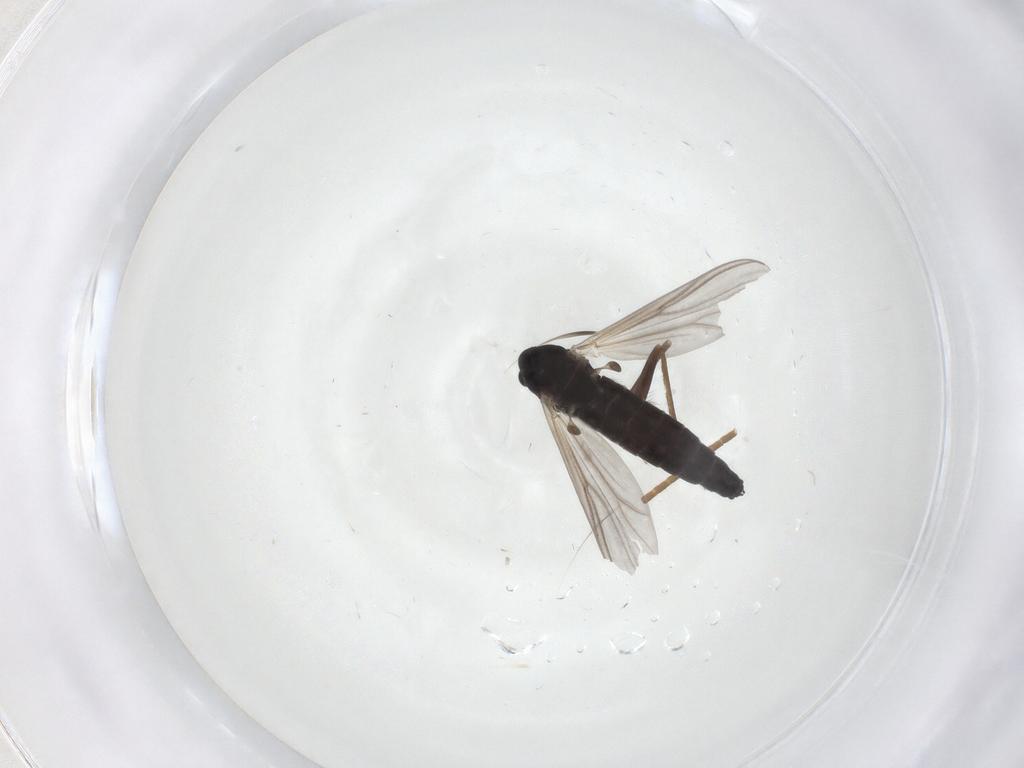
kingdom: Animalia
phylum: Arthropoda
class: Insecta
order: Diptera
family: Chironomidae
